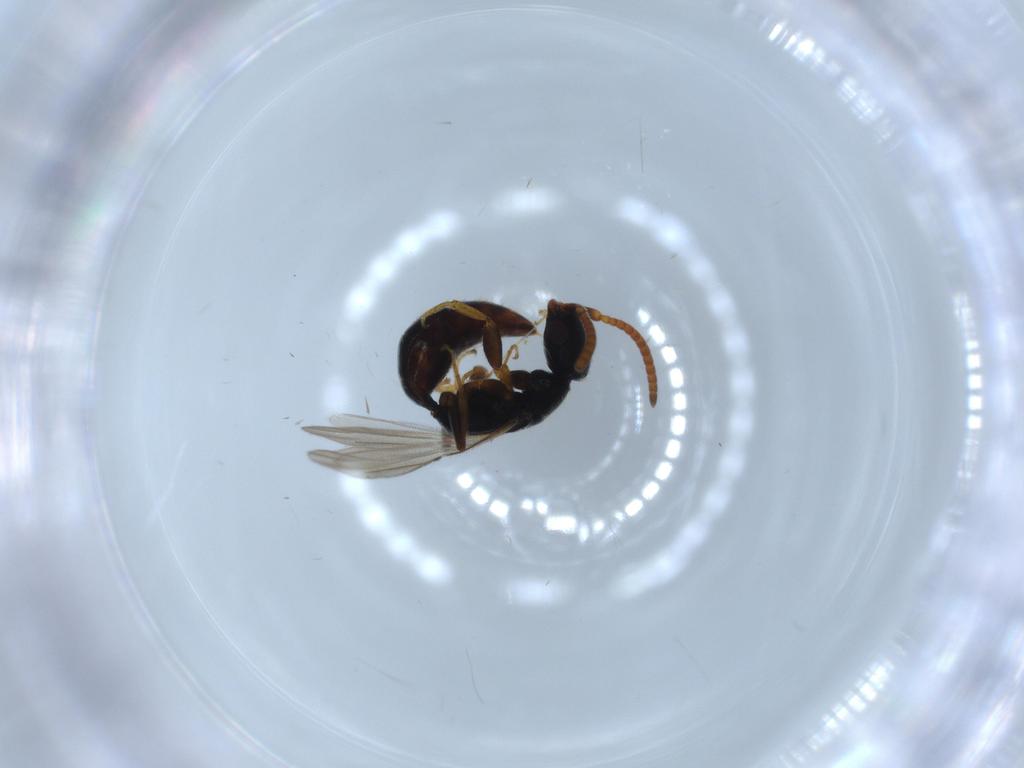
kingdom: Animalia
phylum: Arthropoda
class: Insecta
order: Hymenoptera
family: Bethylidae
